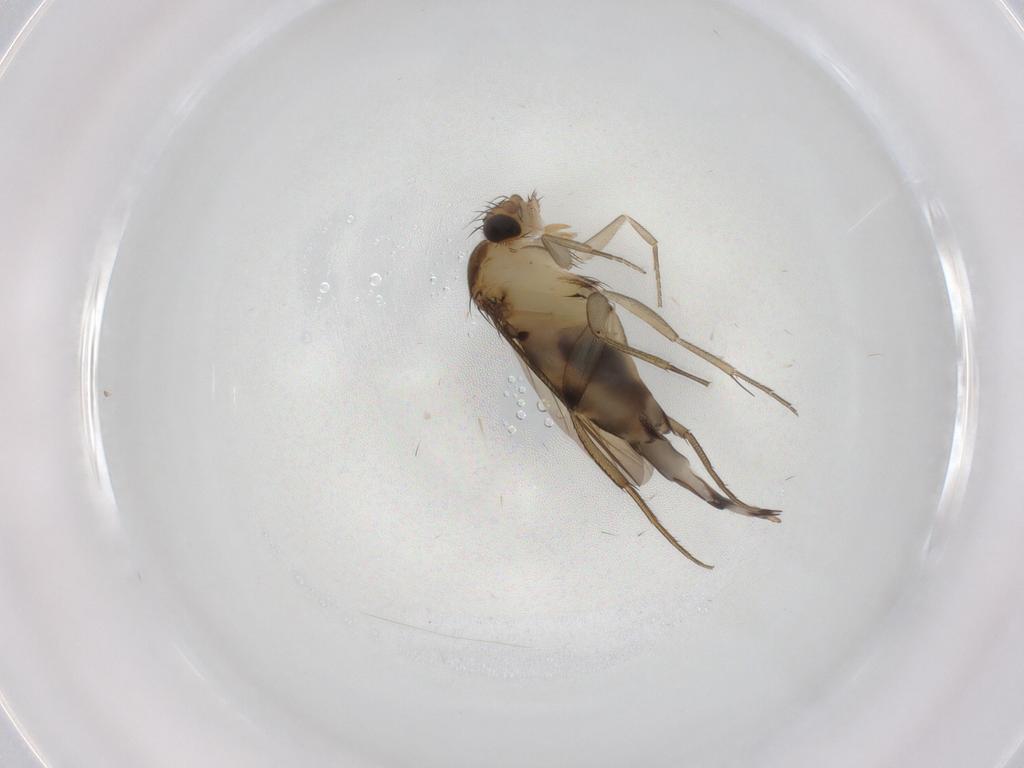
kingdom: Animalia
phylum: Arthropoda
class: Insecta
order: Diptera
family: Phoridae
